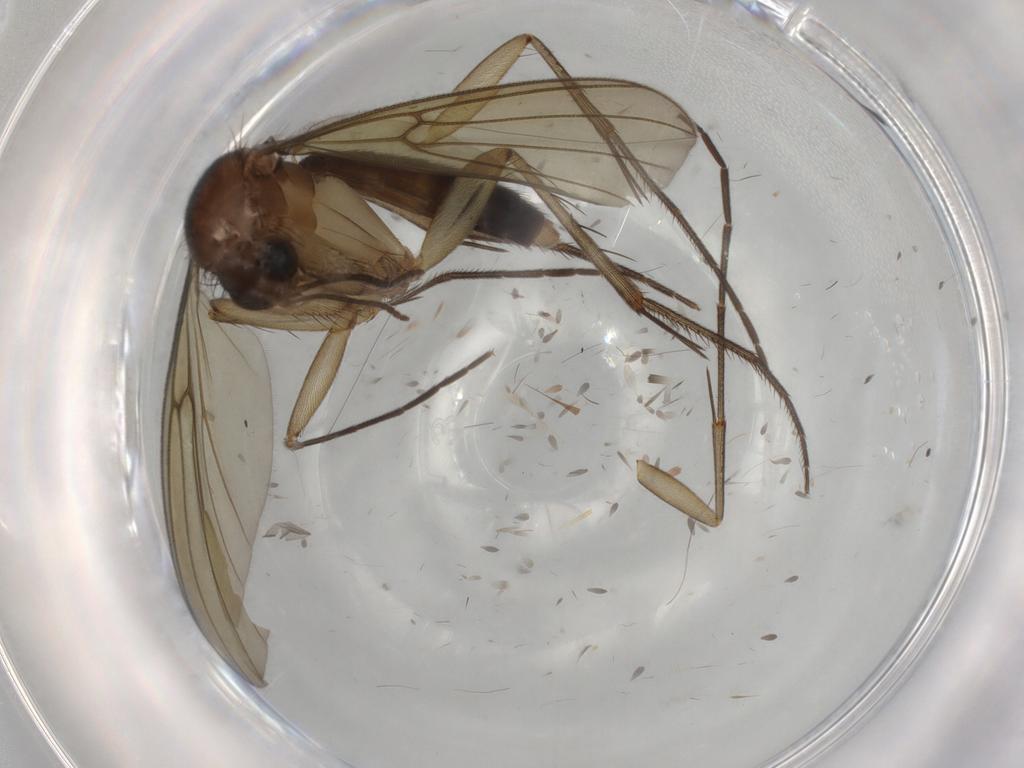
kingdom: Animalia
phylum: Arthropoda
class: Insecta
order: Diptera
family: Mycetophilidae
